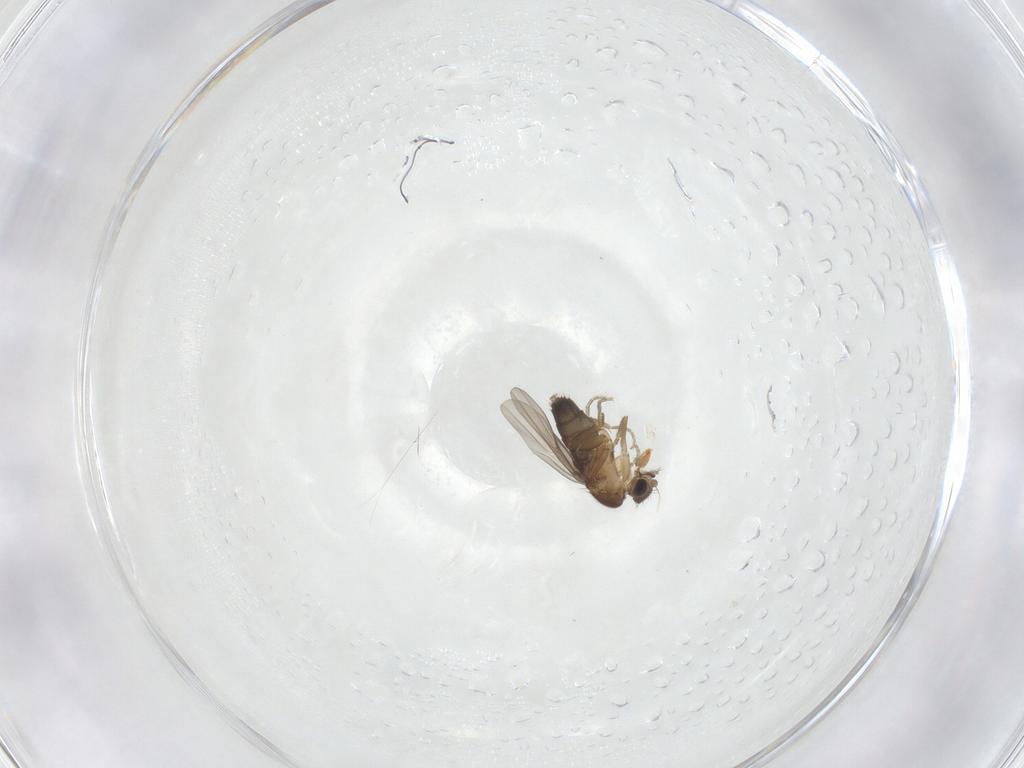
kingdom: Animalia
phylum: Arthropoda
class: Insecta
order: Diptera
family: Phoridae
